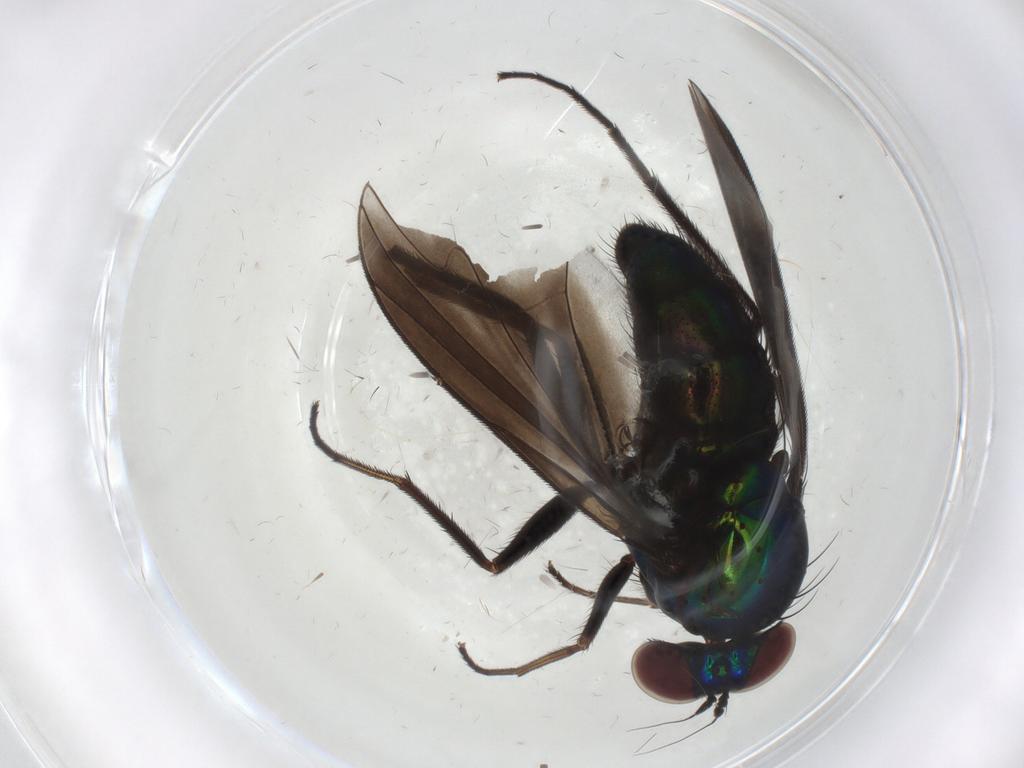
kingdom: Animalia
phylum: Arthropoda
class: Insecta
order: Diptera
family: Dolichopodidae
